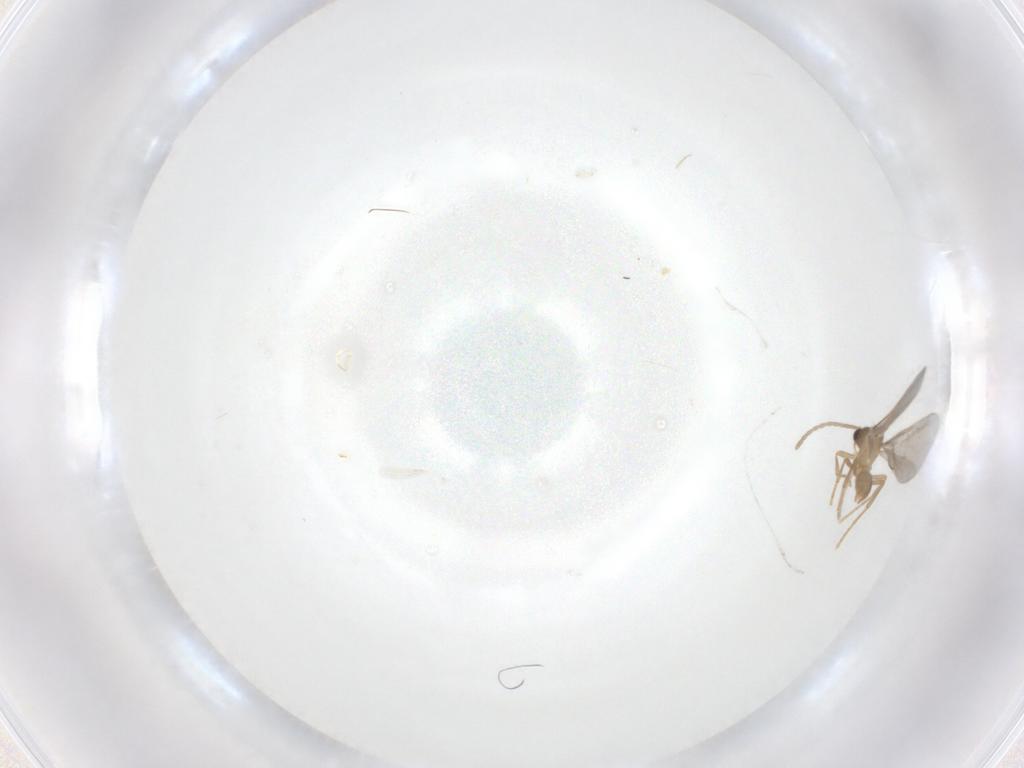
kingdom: Animalia
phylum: Arthropoda
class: Insecta
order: Hymenoptera
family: Formicidae
